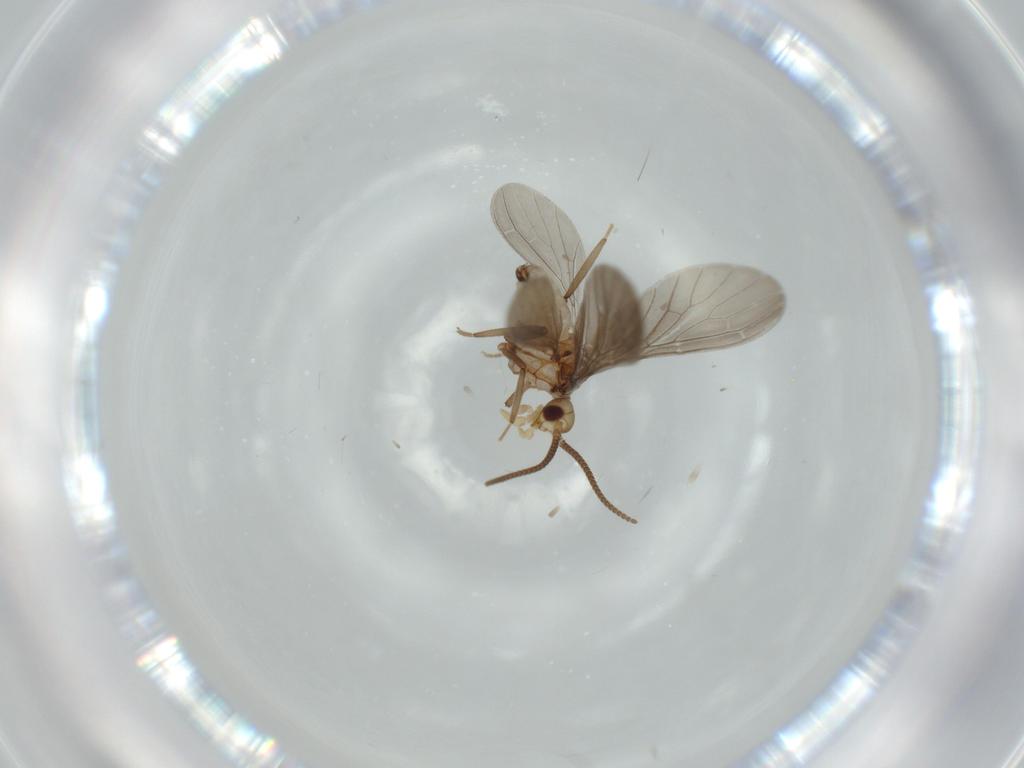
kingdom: Animalia
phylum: Arthropoda
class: Insecta
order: Neuroptera
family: Coniopterygidae
